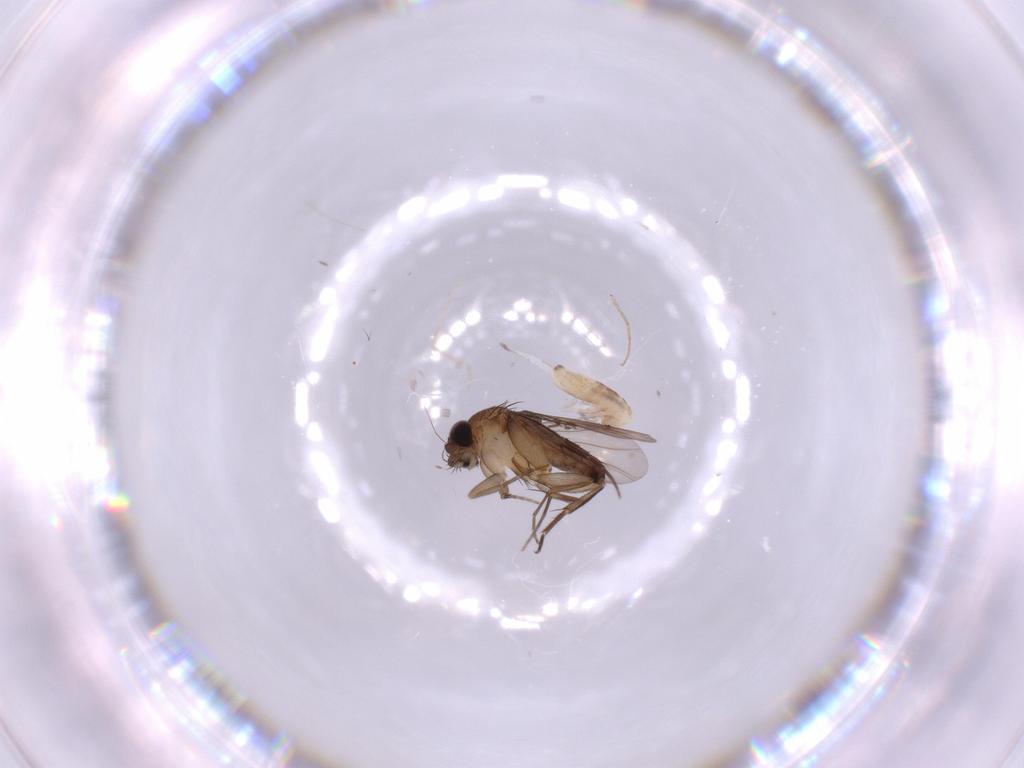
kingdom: Animalia
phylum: Arthropoda
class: Insecta
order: Diptera
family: Phoridae
